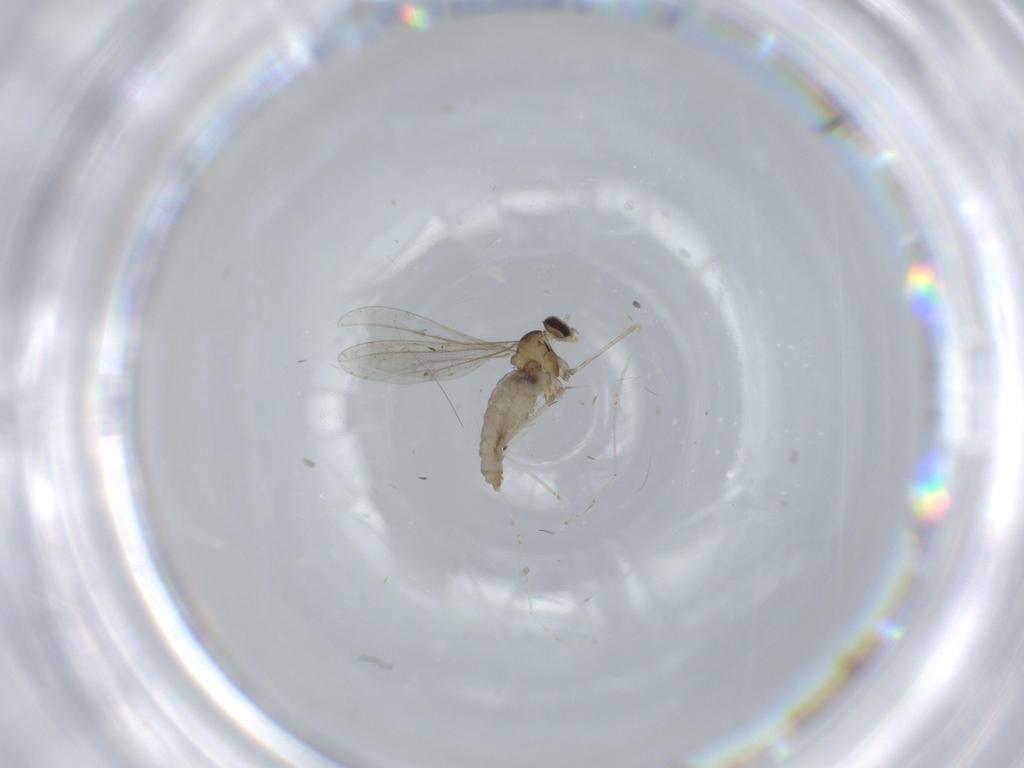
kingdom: Animalia
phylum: Arthropoda
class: Insecta
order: Diptera
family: Cecidomyiidae
